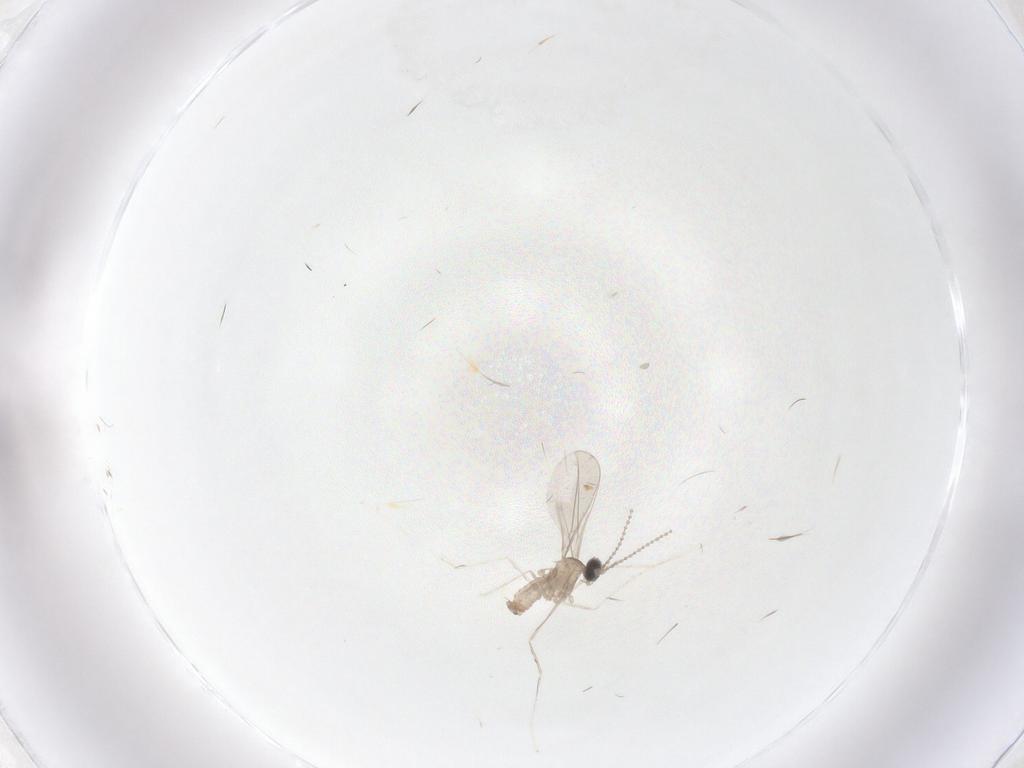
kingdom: Animalia
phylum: Arthropoda
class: Insecta
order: Diptera
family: Cecidomyiidae
